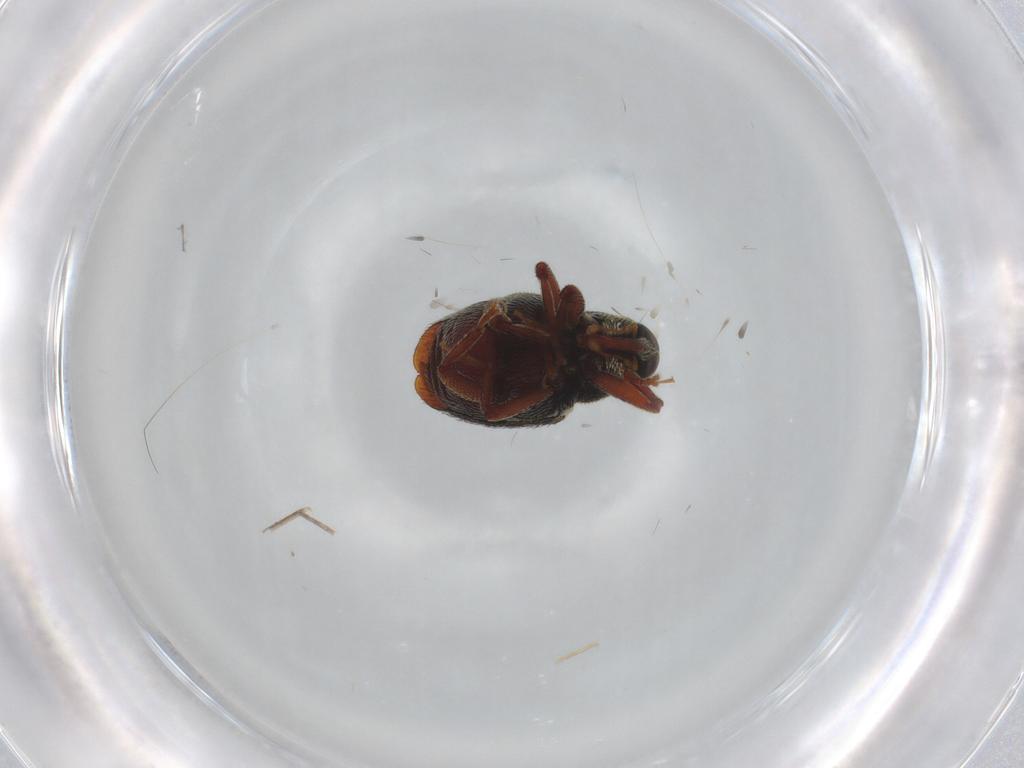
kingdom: Animalia
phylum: Arthropoda
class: Insecta
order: Coleoptera
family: Curculionidae
